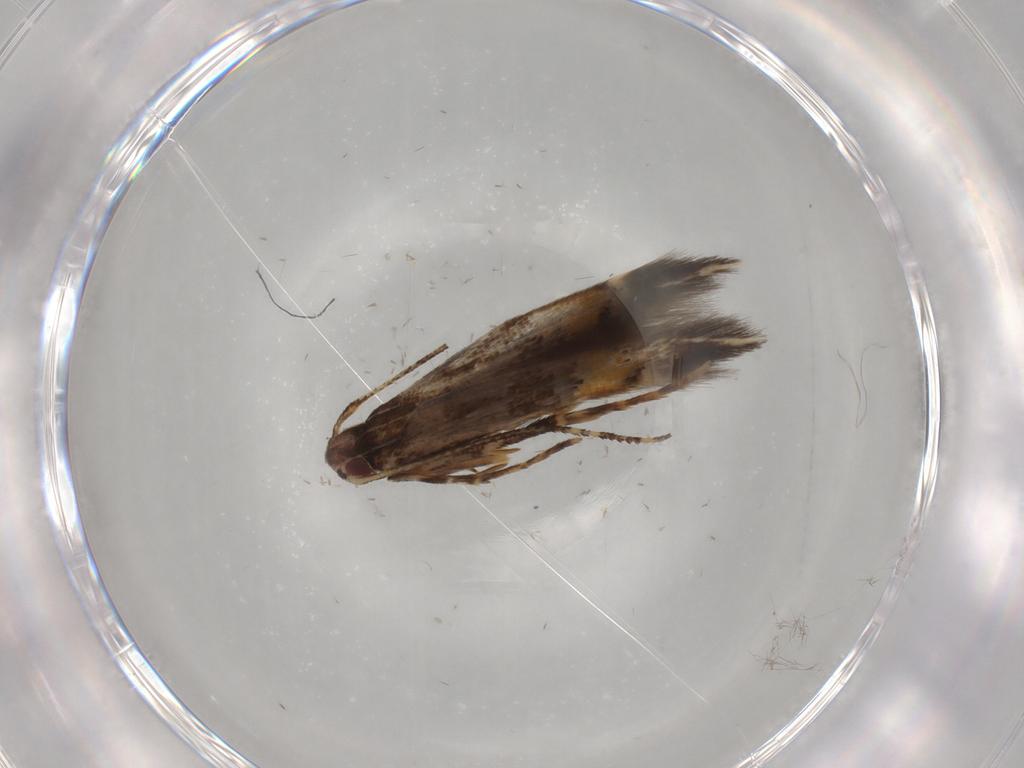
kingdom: Animalia
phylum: Arthropoda
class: Insecta
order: Lepidoptera
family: Cosmopterigidae
